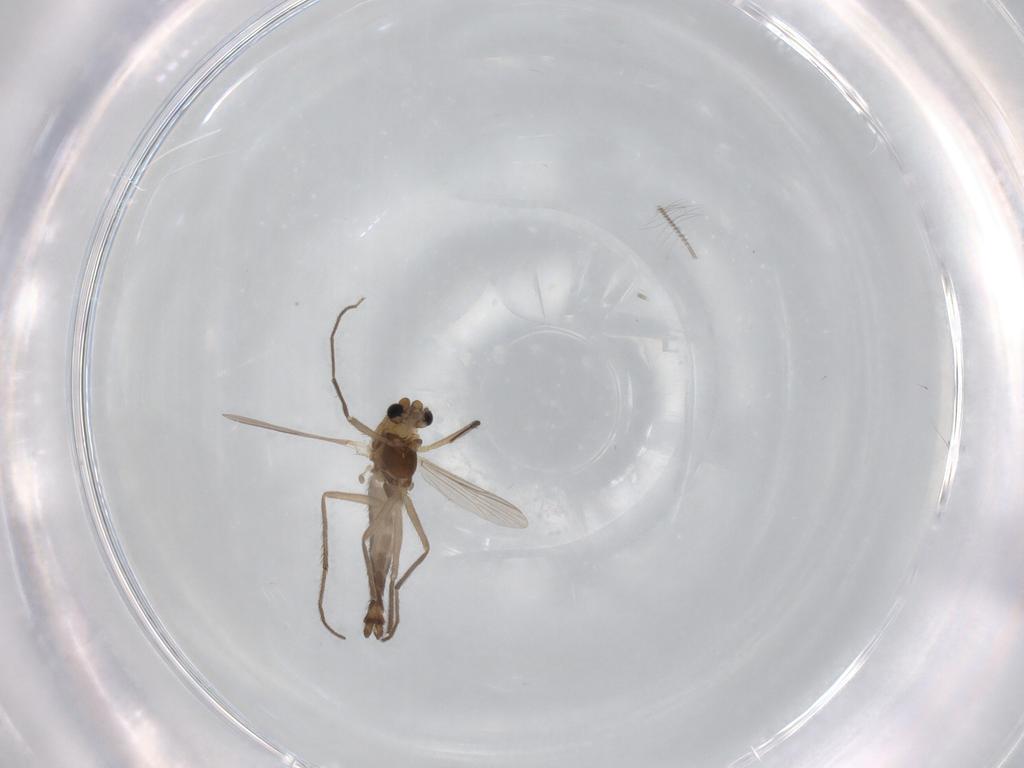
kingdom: Animalia
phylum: Arthropoda
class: Insecta
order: Diptera
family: Chironomidae
